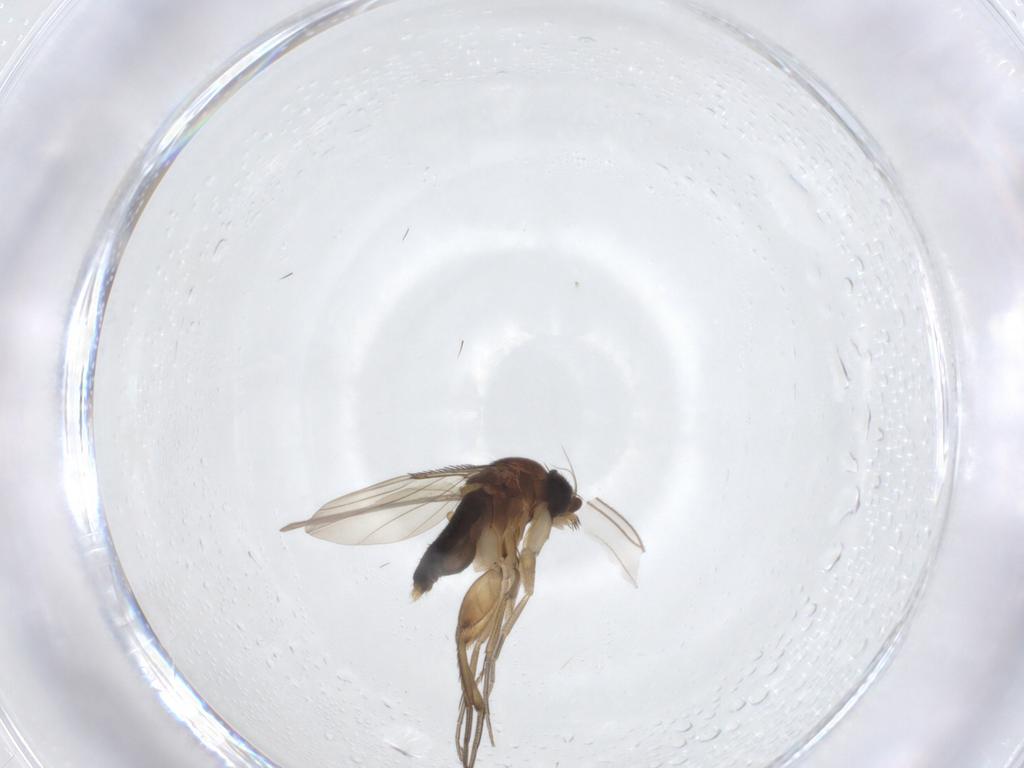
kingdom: Animalia
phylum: Arthropoda
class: Insecta
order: Diptera
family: Phoridae
